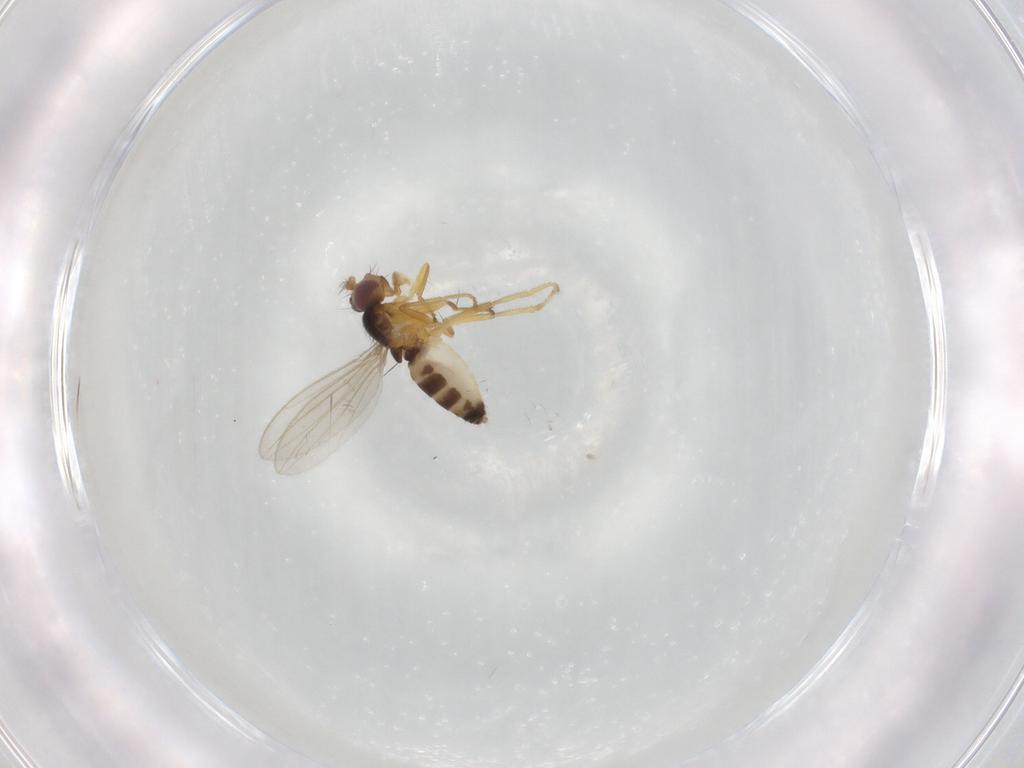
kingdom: Animalia
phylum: Arthropoda
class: Insecta
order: Diptera
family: Periscelididae
